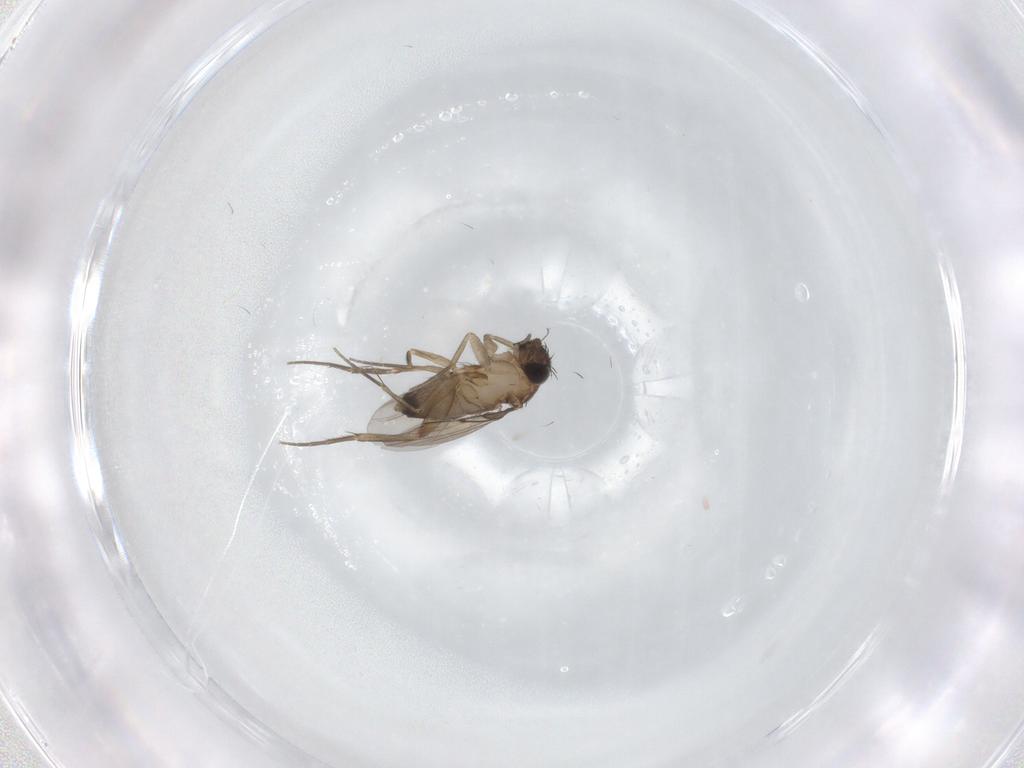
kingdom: Animalia
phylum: Arthropoda
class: Insecta
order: Diptera
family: Phoridae
